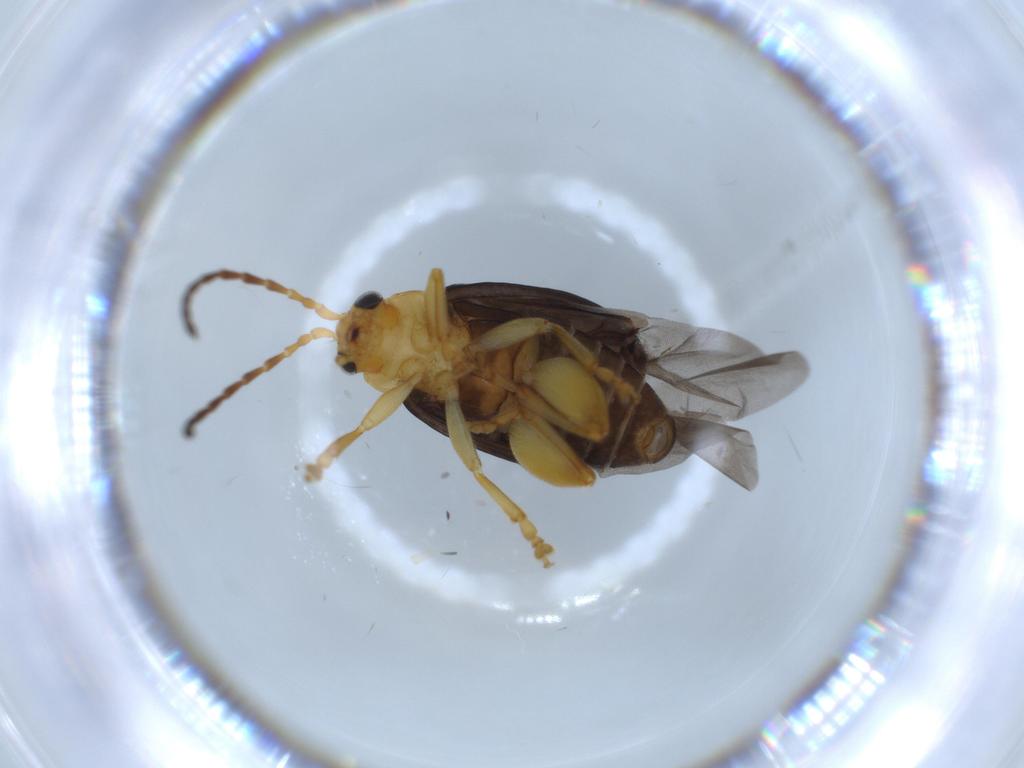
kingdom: Animalia
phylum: Arthropoda
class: Insecta
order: Coleoptera
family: Chrysomelidae
